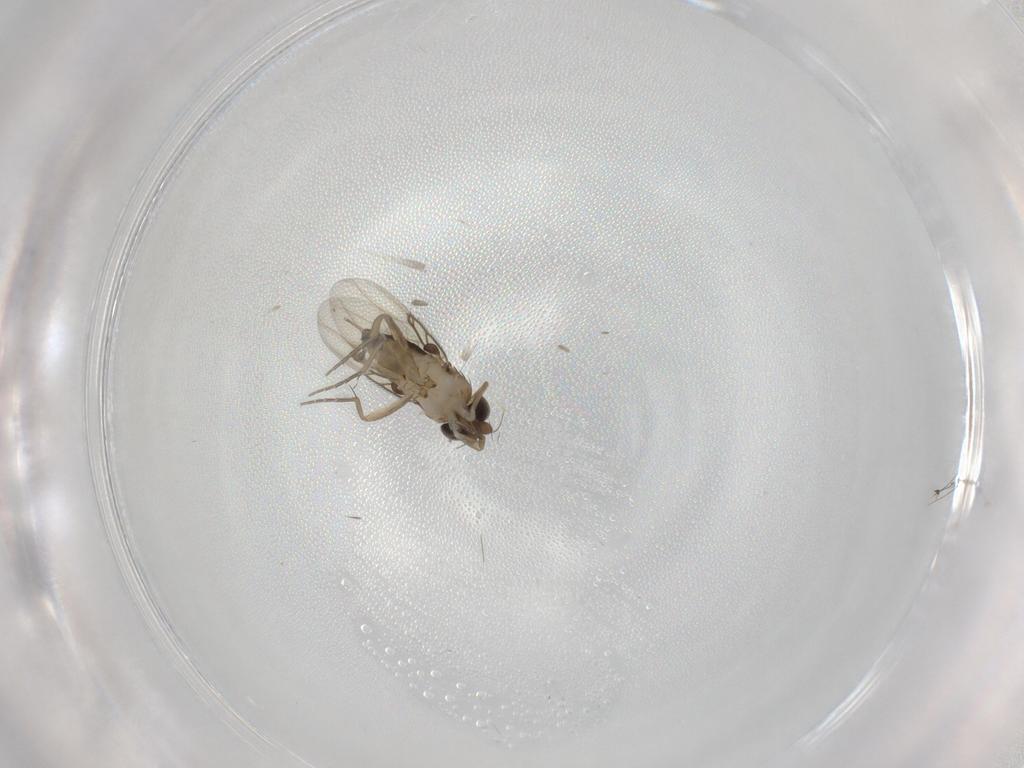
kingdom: Animalia
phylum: Arthropoda
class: Insecta
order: Diptera
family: Phoridae
